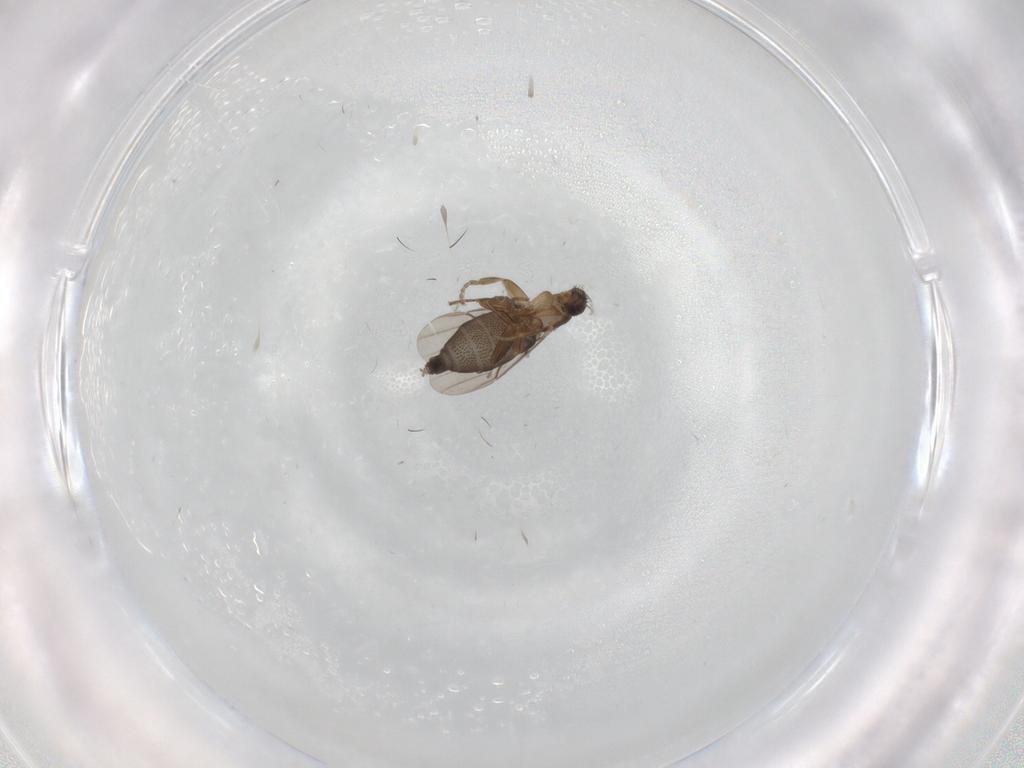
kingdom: Animalia
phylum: Arthropoda
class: Insecta
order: Diptera
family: Phoridae
